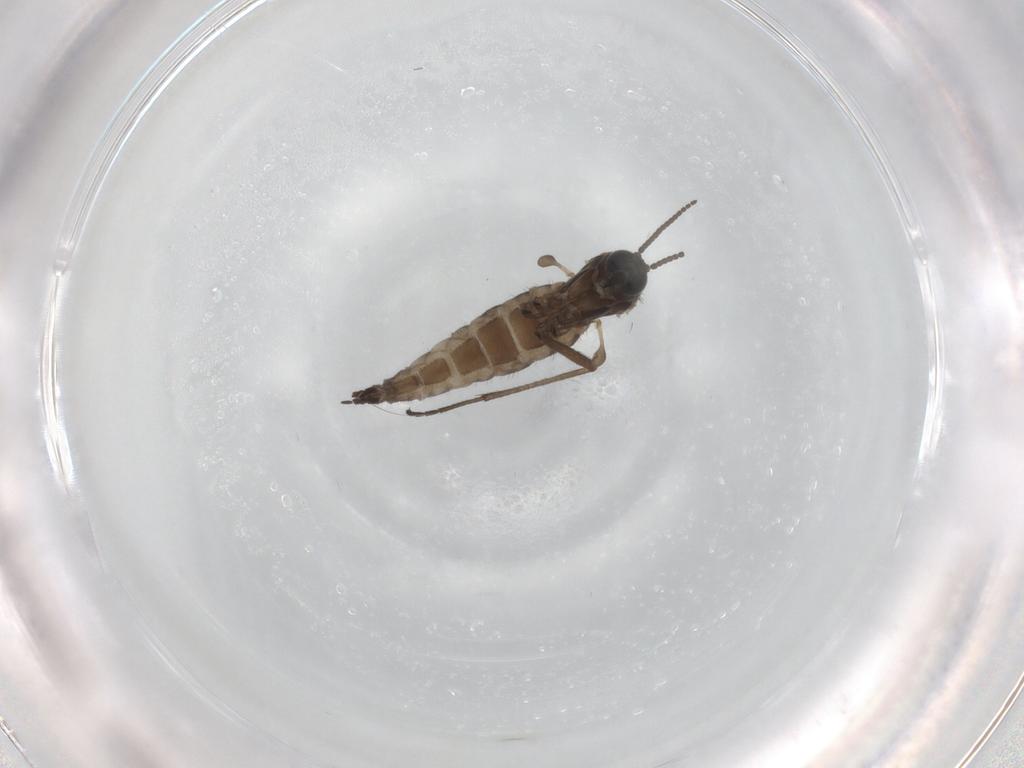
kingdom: Animalia
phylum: Arthropoda
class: Insecta
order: Diptera
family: Sciaridae
